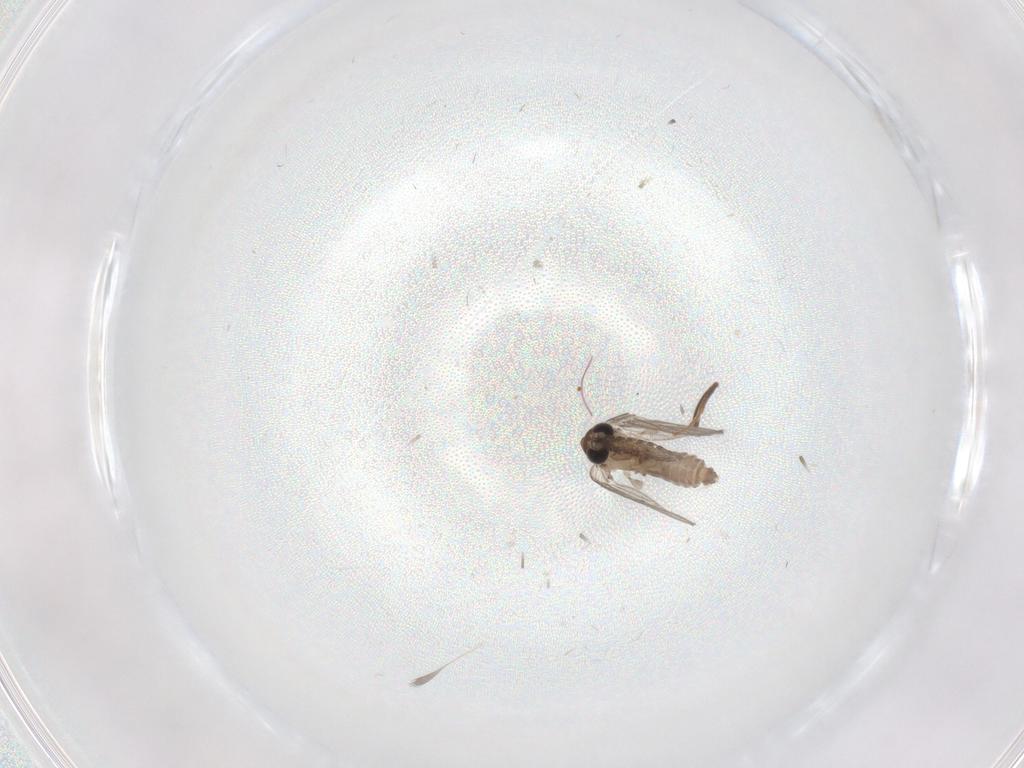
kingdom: Animalia
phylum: Arthropoda
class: Insecta
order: Diptera
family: Psychodidae
